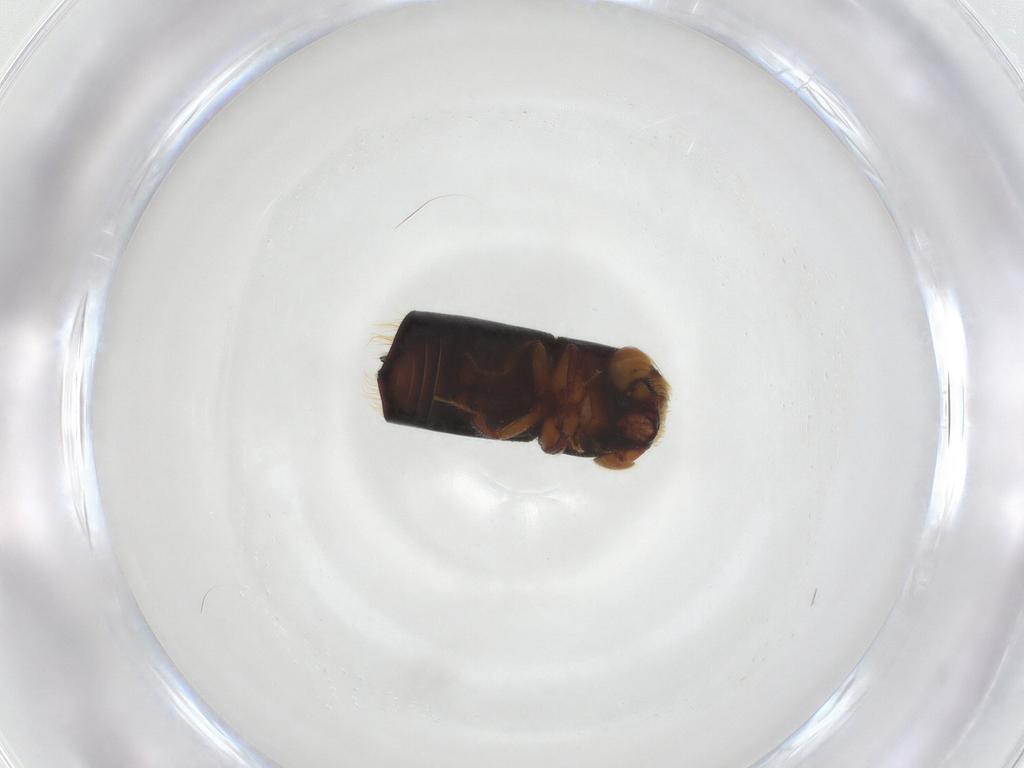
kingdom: Animalia
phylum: Arthropoda
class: Insecta
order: Coleoptera
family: Curculionidae
